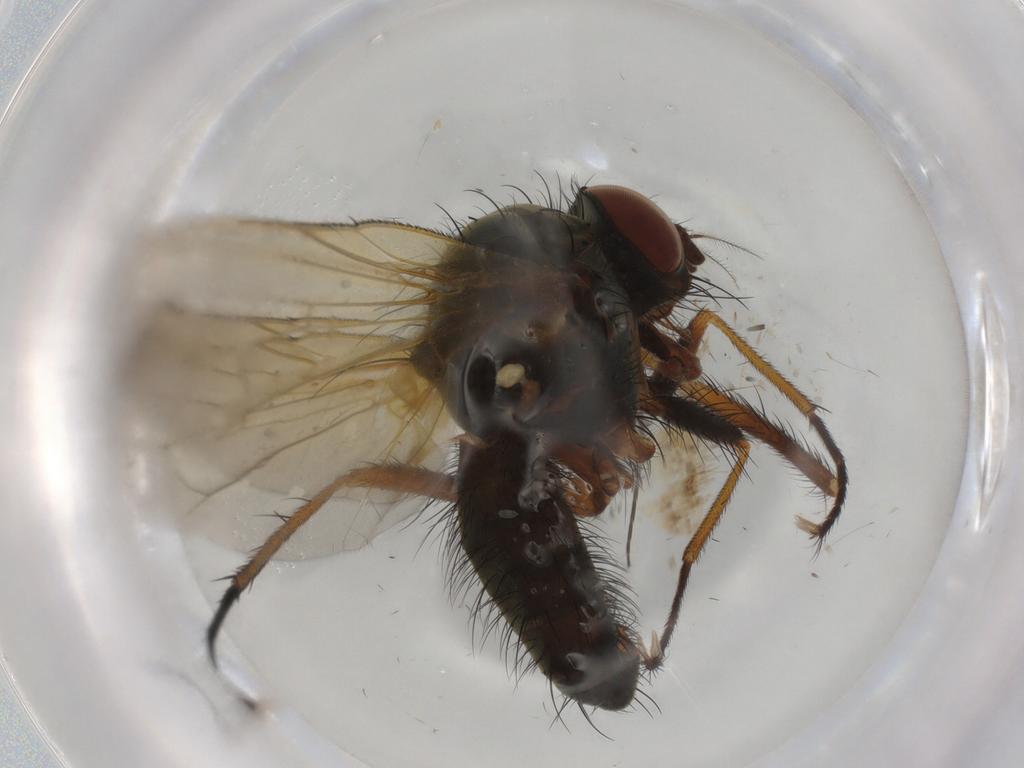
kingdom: Animalia
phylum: Arthropoda
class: Insecta
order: Diptera
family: Anthomyiidae
